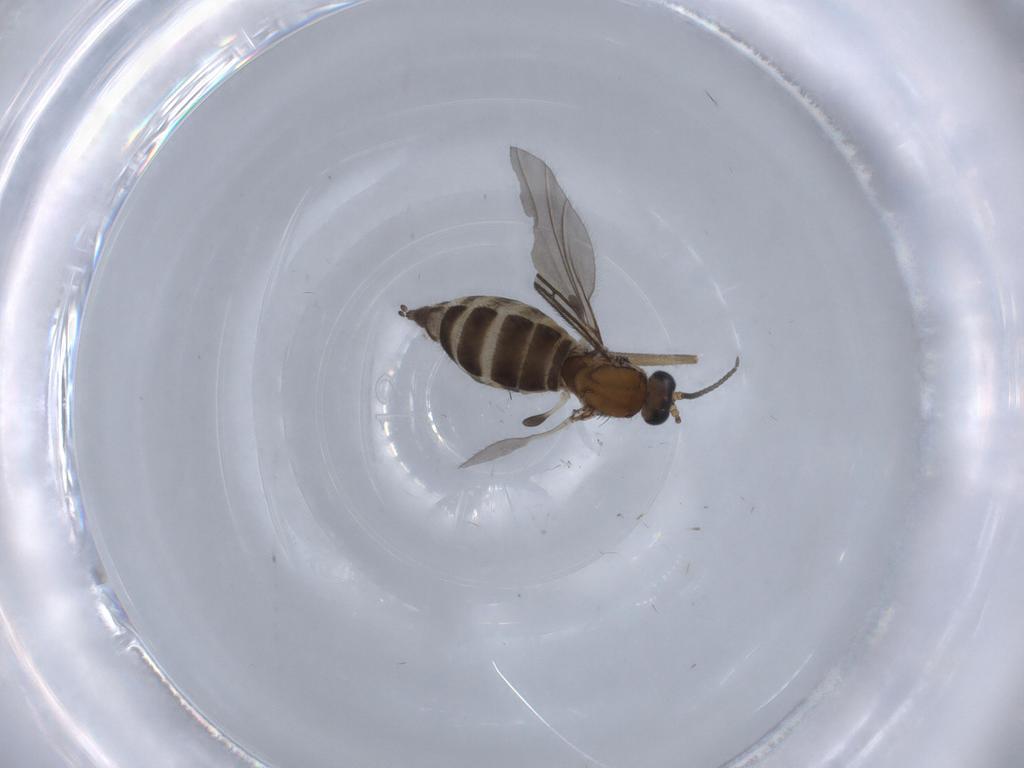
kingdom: Animalia
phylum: Arthropoda
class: Insecta
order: Diptera
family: Sciaridae
